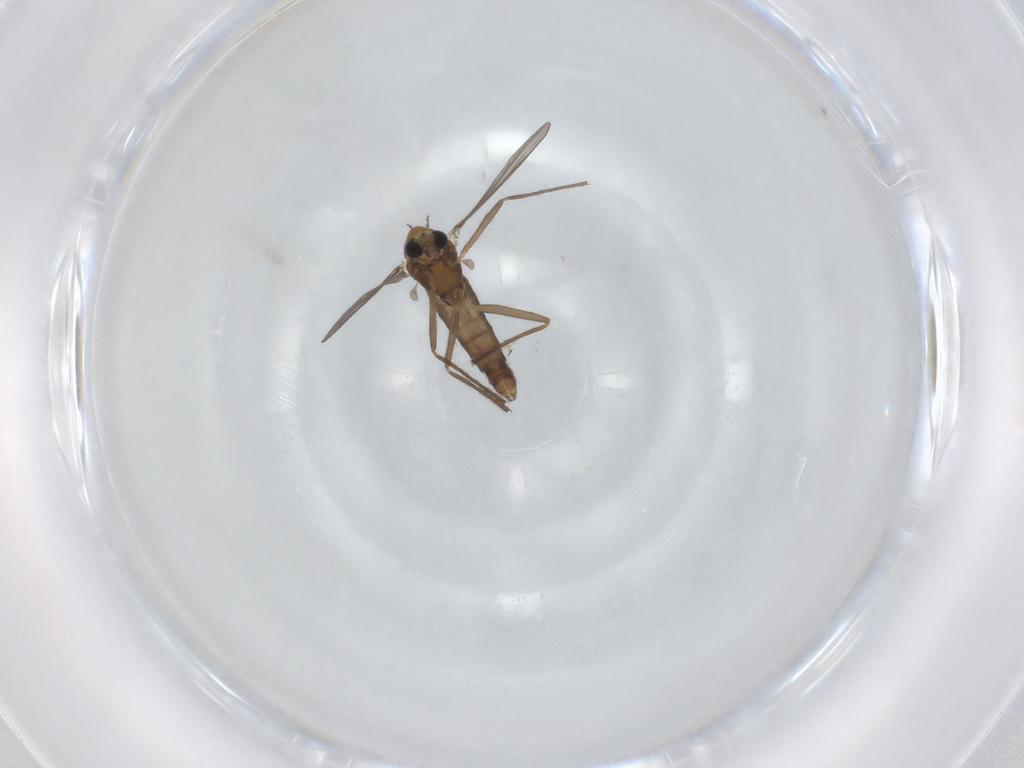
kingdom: Animalia
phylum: Arthropoda
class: Insecta
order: Diptera
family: Chironomidae
